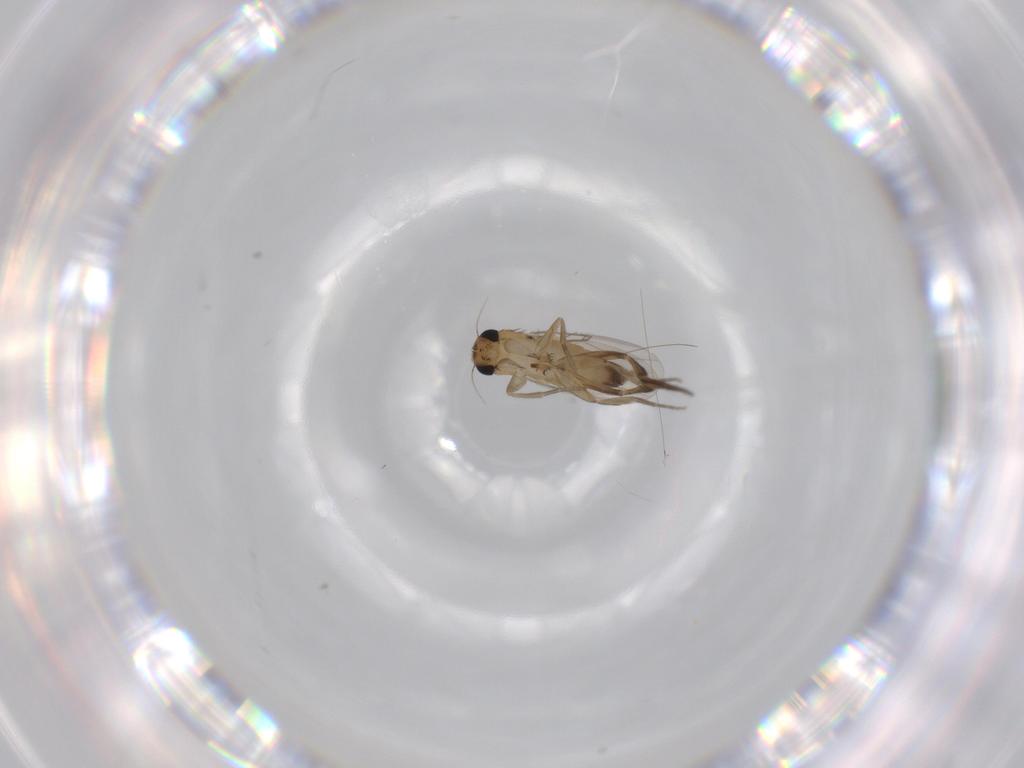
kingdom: Animalia
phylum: Arthropoda
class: Insecta
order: Diptera
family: Phoridae
